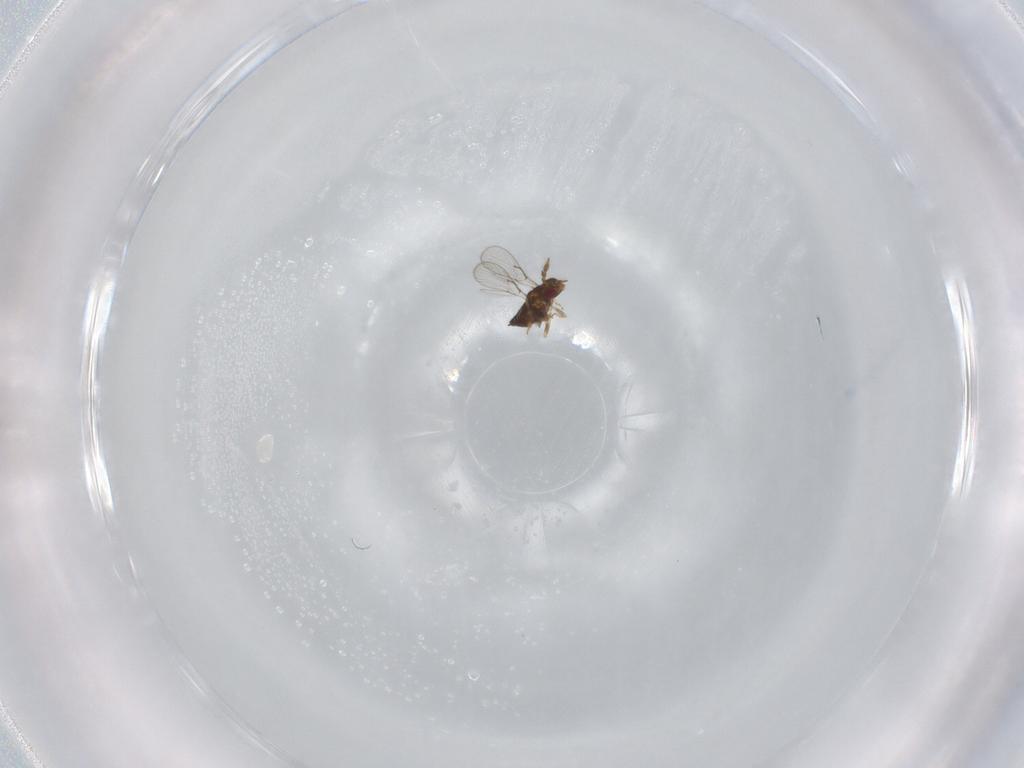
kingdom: Animalia
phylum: Arthropoda
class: Insecta
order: Hymenoptera
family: Trichogrammatidae
